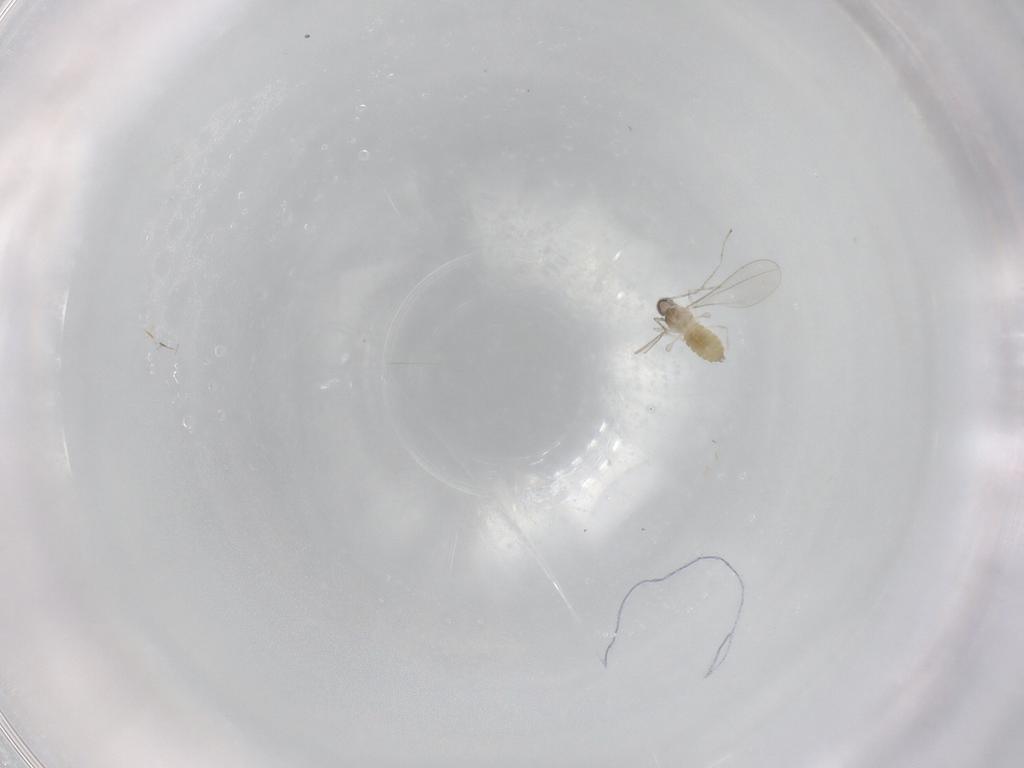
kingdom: Animalia
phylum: Arthropoda
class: Insecta
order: Diptera
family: Cecidomyiidae
